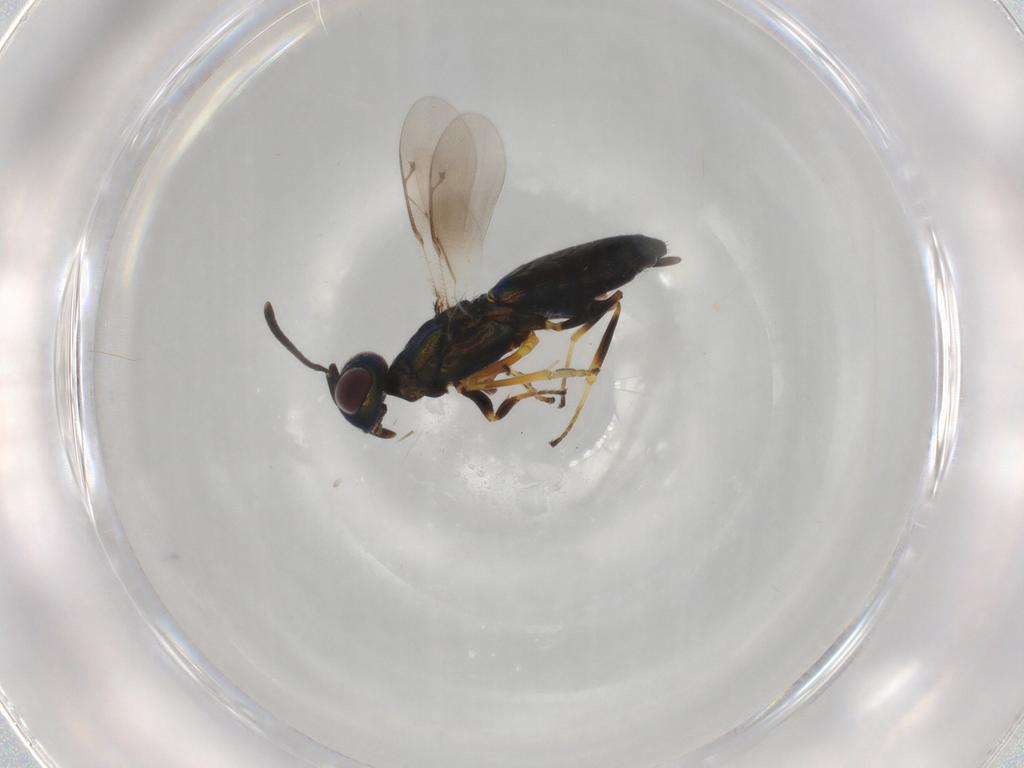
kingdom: Animalia
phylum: Arthropoda
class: Insecta
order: Hymenoptera
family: Eupelmidae
